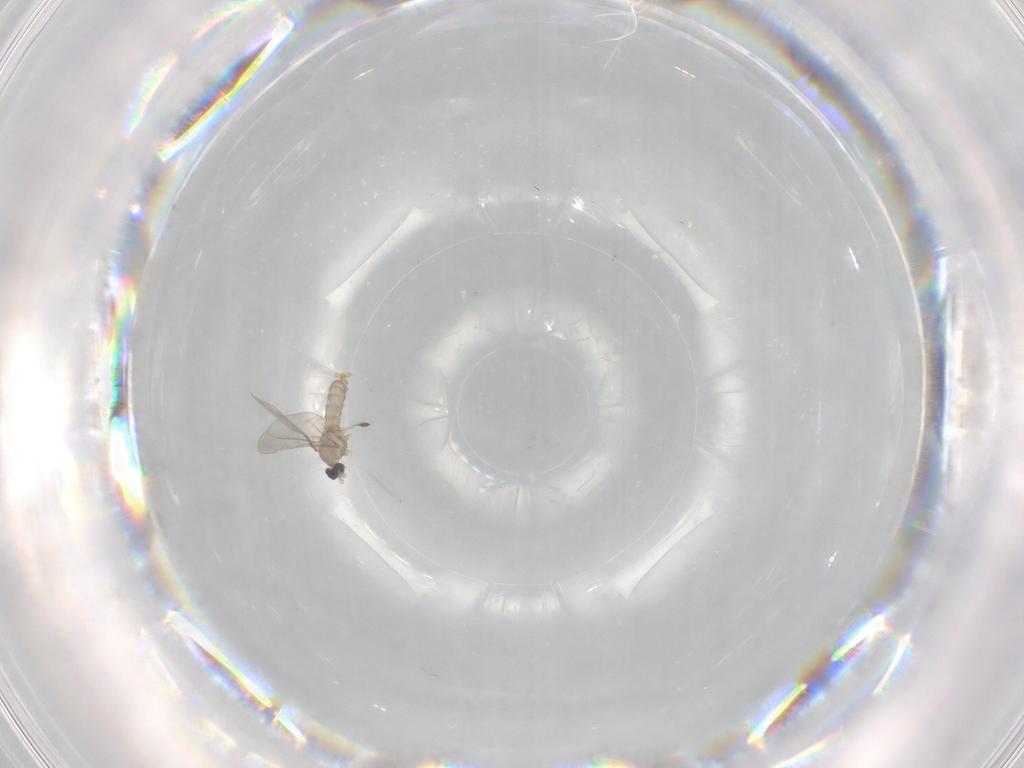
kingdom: Animalia
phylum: Arthropoda
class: Insecta
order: Diptera
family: Cecidomyiidae
